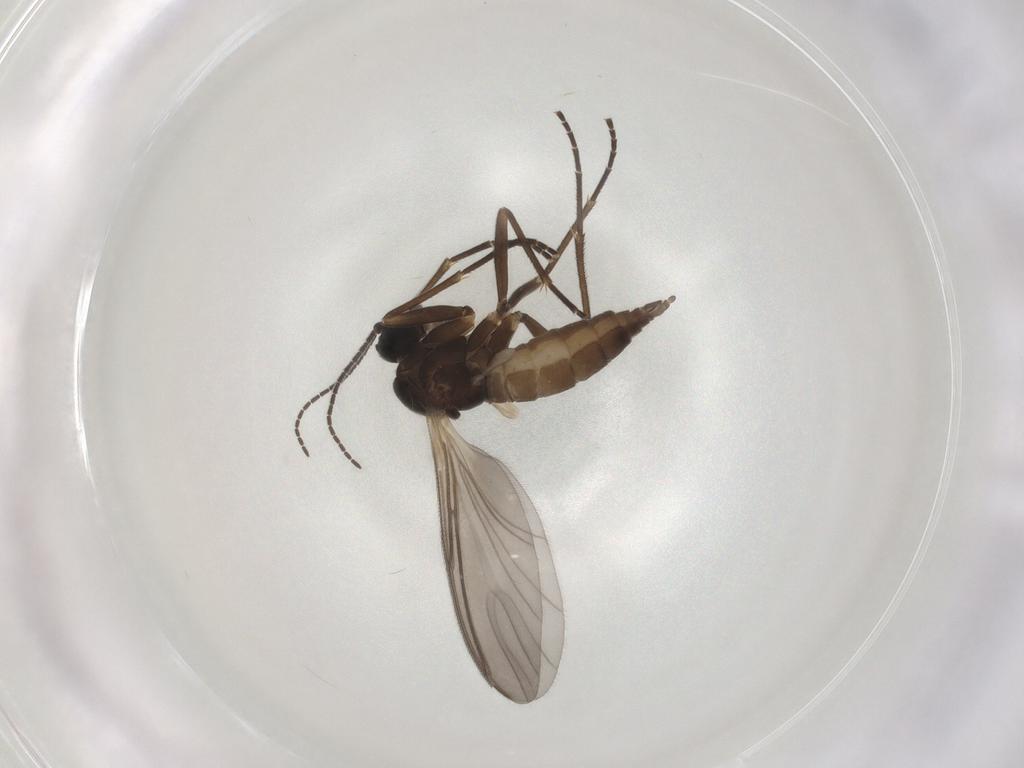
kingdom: Animalia
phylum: Arthropoda
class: Insecta
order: Diptera
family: Sciaridae
